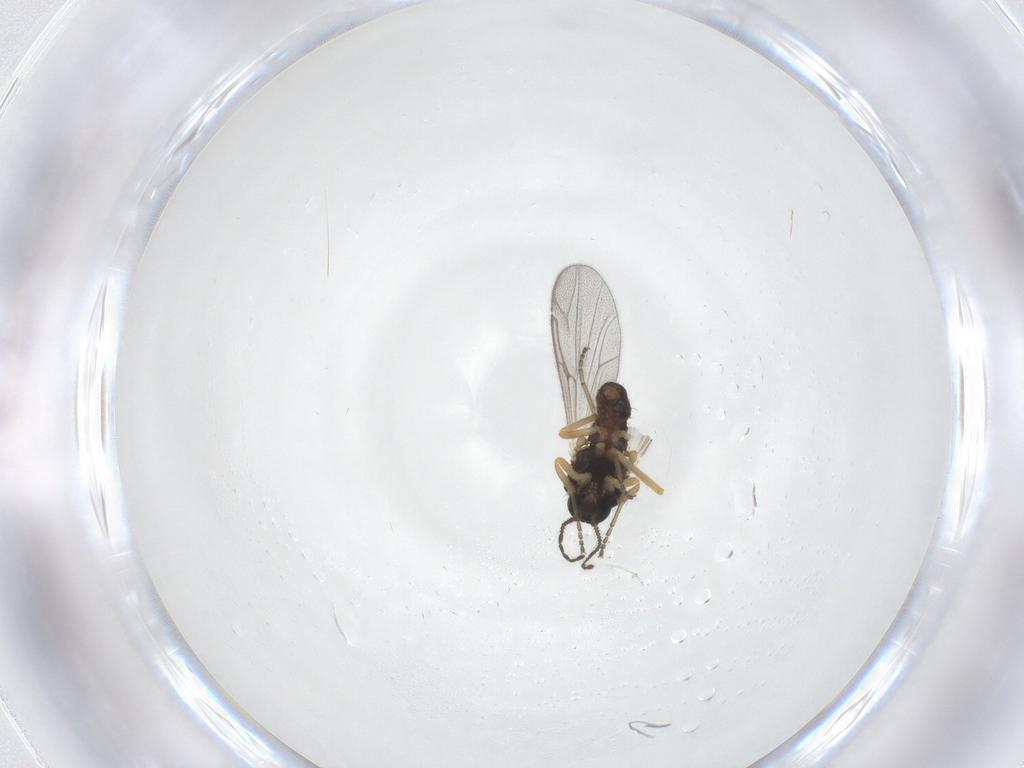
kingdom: Animalia
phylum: Arthropoda
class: Insecta
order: Diptera
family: Ceratopogonidae
